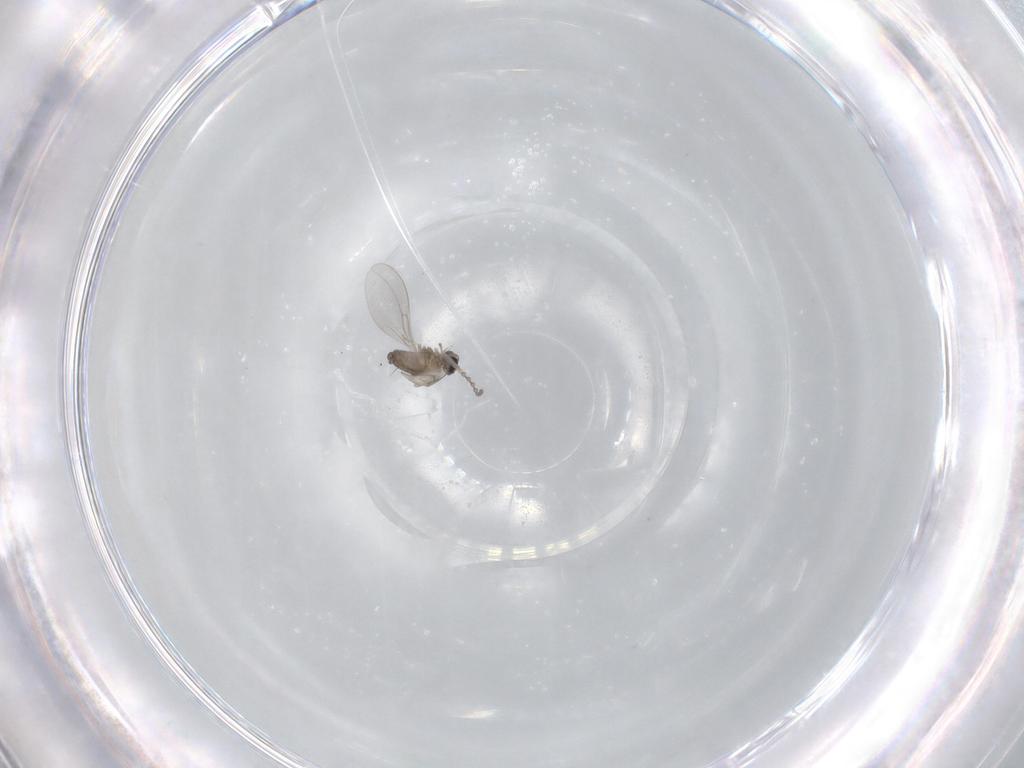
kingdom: Animalia
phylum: Arthropoda
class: Insecta
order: Diptera
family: Cecidomyiidae
